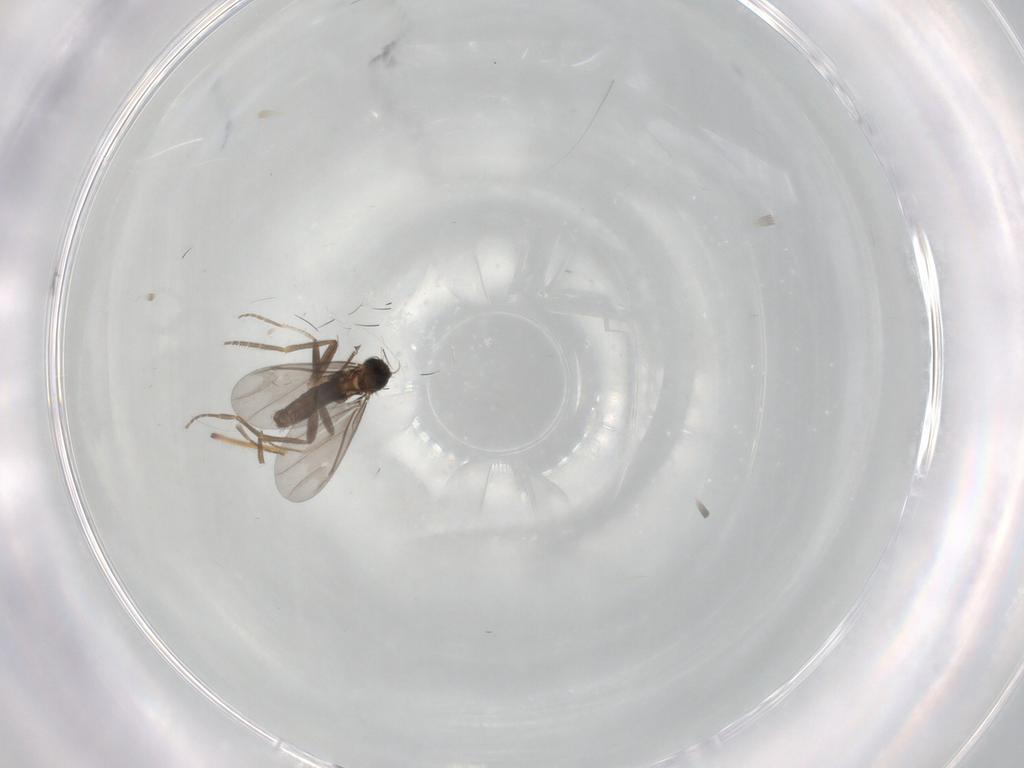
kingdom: Animalia
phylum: Arthropoda
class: Insecta
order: Diptera
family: Phoridae
